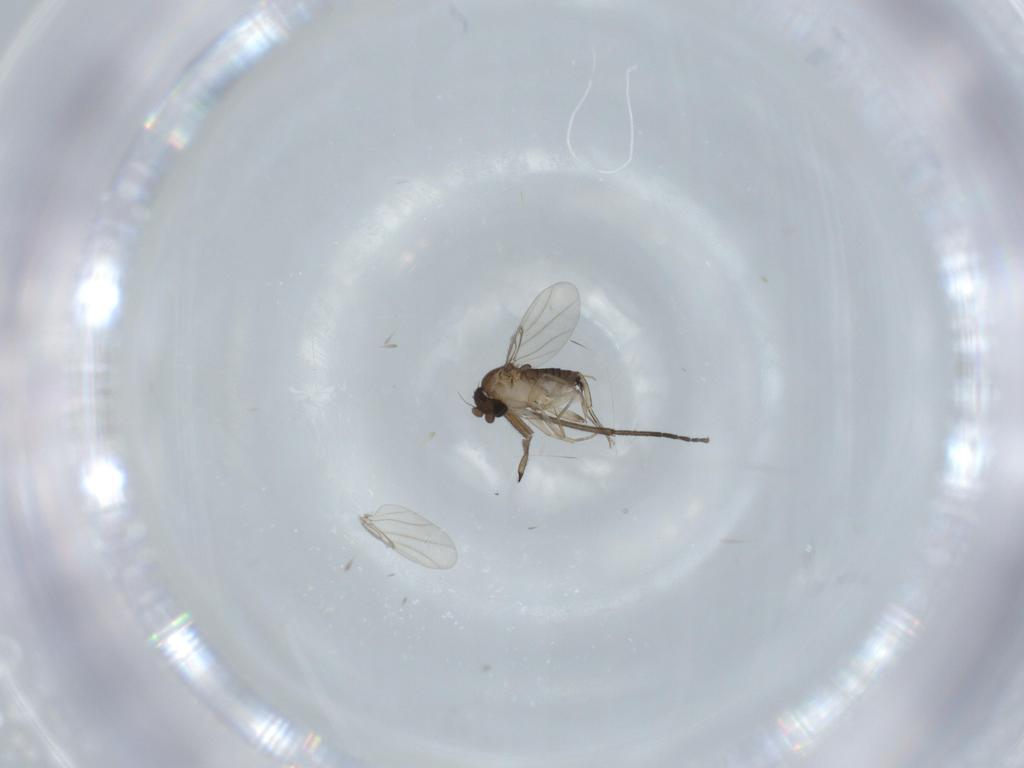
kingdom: Animalia
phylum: Arthropoda
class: Insecta
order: Diptera
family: Phoridae
